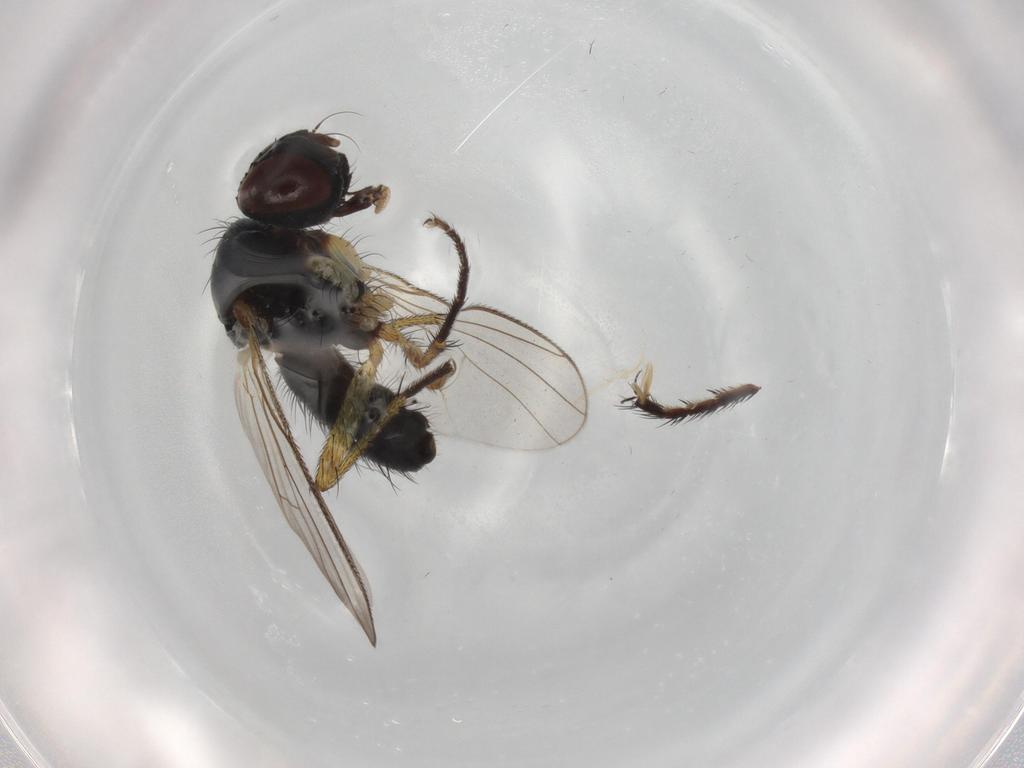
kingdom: Animalia
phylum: Arthropoda
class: Insecta
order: Diptera
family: Muscidae
